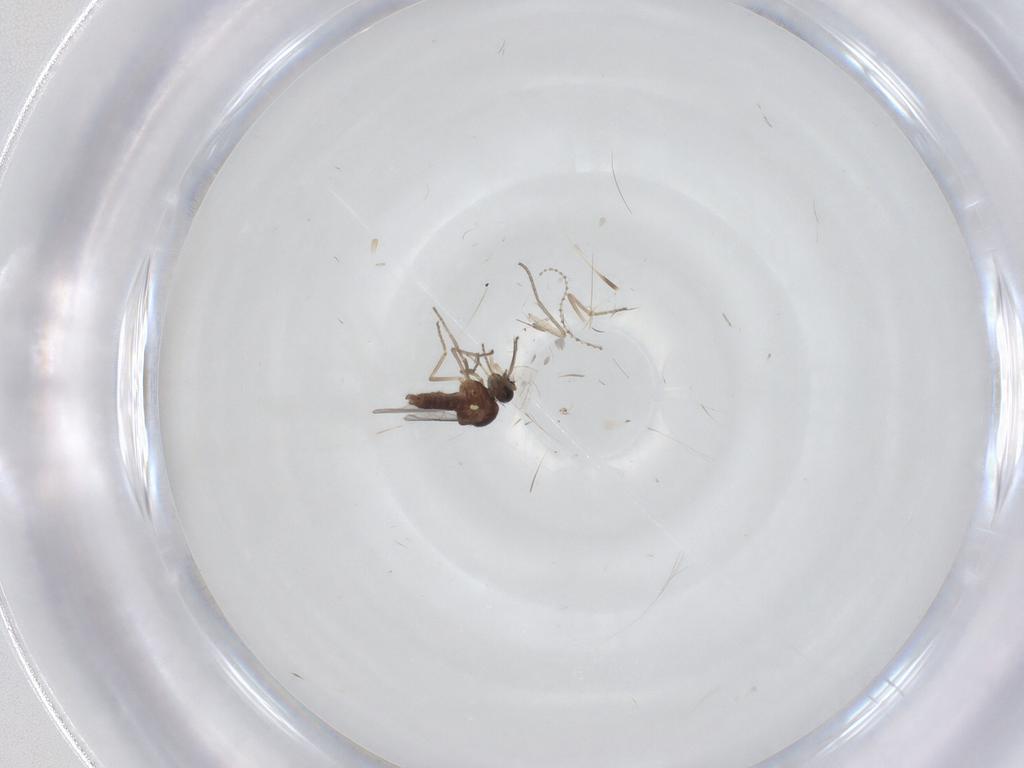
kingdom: Animalia
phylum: Arthropoda
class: Insecta
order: Diptera
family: Ceratopogonidae
